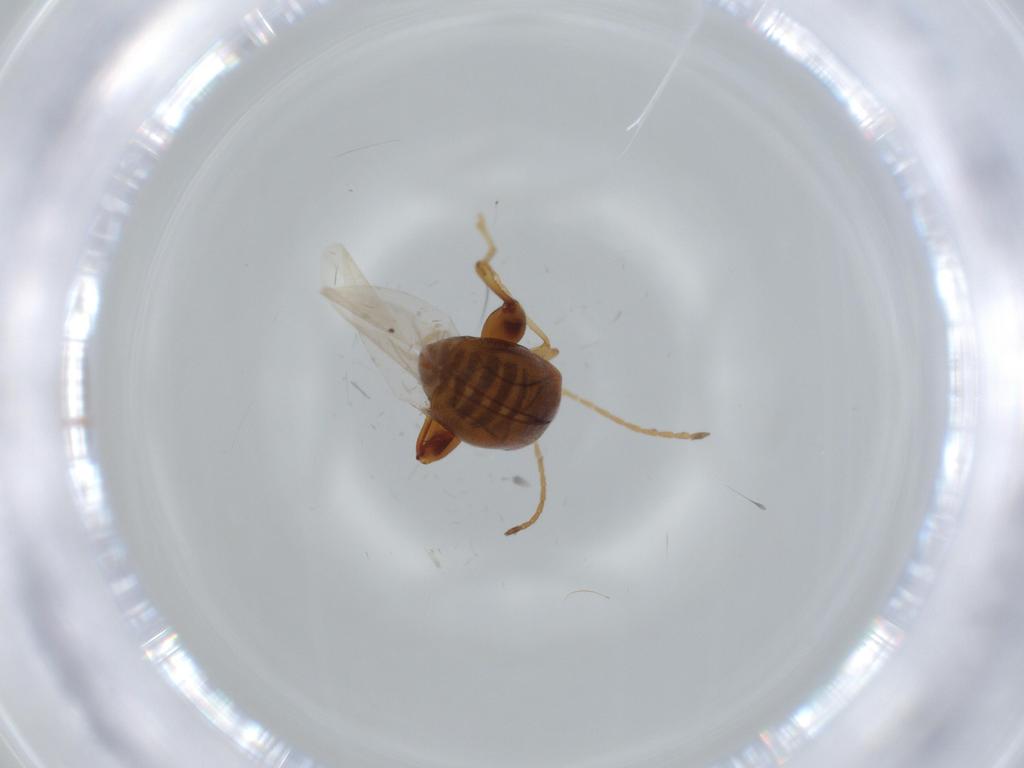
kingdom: Animalia
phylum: Arthropoda
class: Insecta
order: Coleoptera
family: Chrysomelidae
